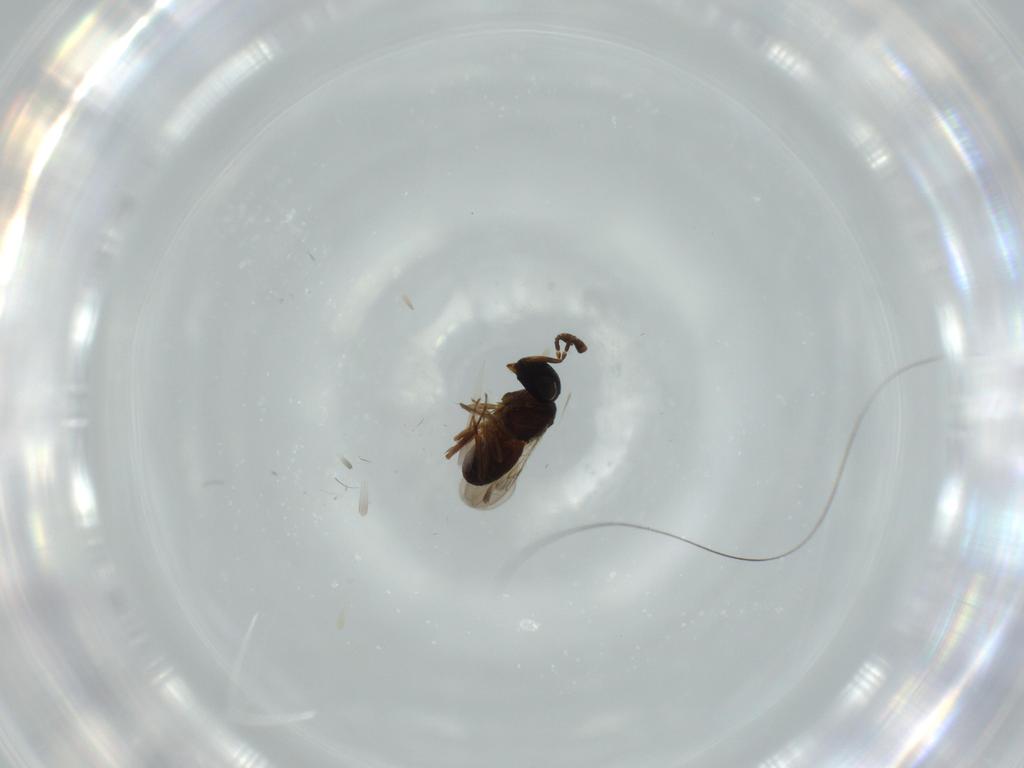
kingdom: Animalia
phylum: Arthropoda
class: Insecta
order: Hymenoptera
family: Scelionidae
